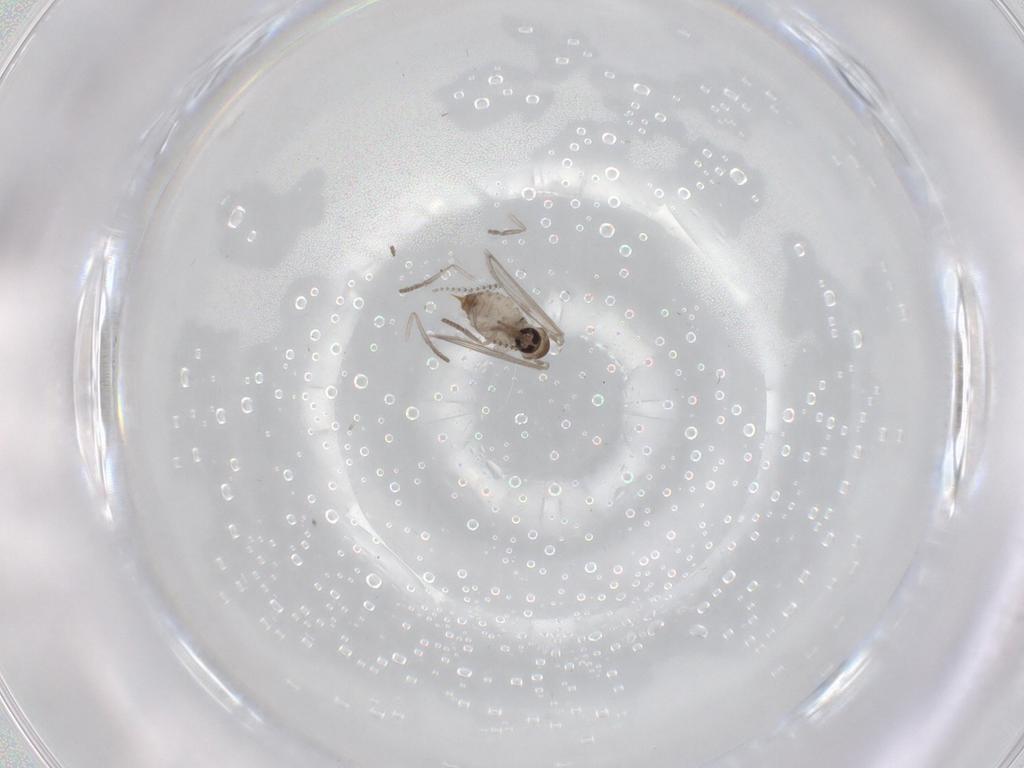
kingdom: Animalia
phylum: Arthropoda
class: Insecta
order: Diptera
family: Psychodidae
